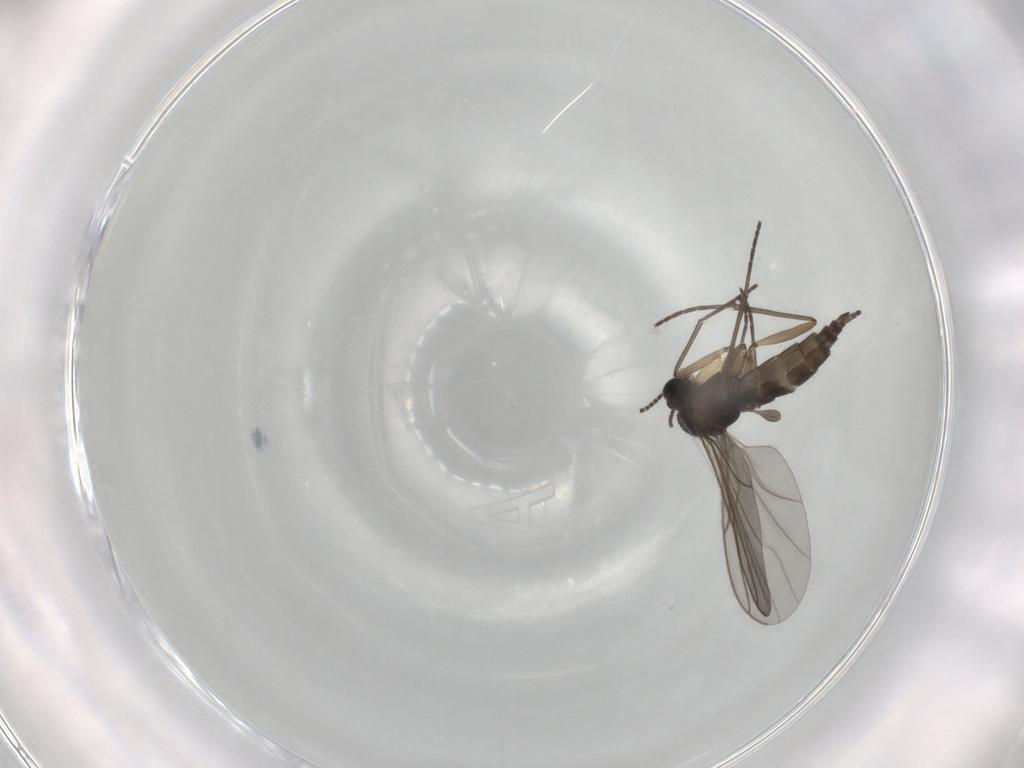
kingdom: Animalia
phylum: Arthropoda
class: Insecta
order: Diptera
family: Sciaridae
